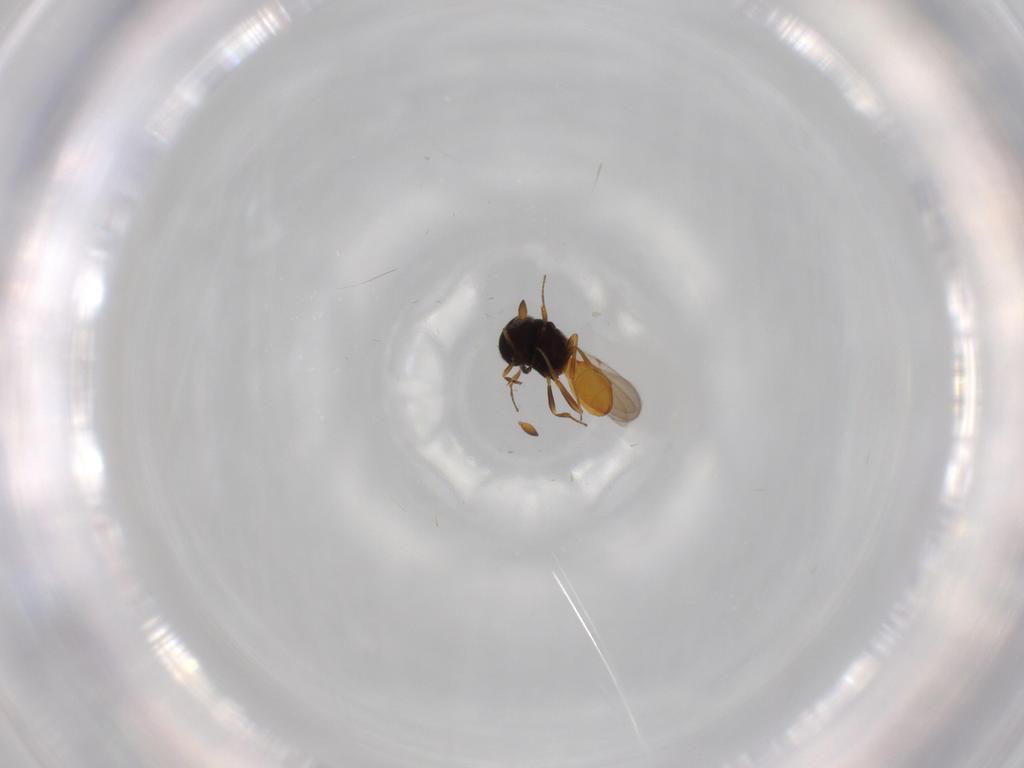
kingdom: Animalia
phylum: Arthropoda
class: Insecta
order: Hymenoptera
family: Scelionidae
